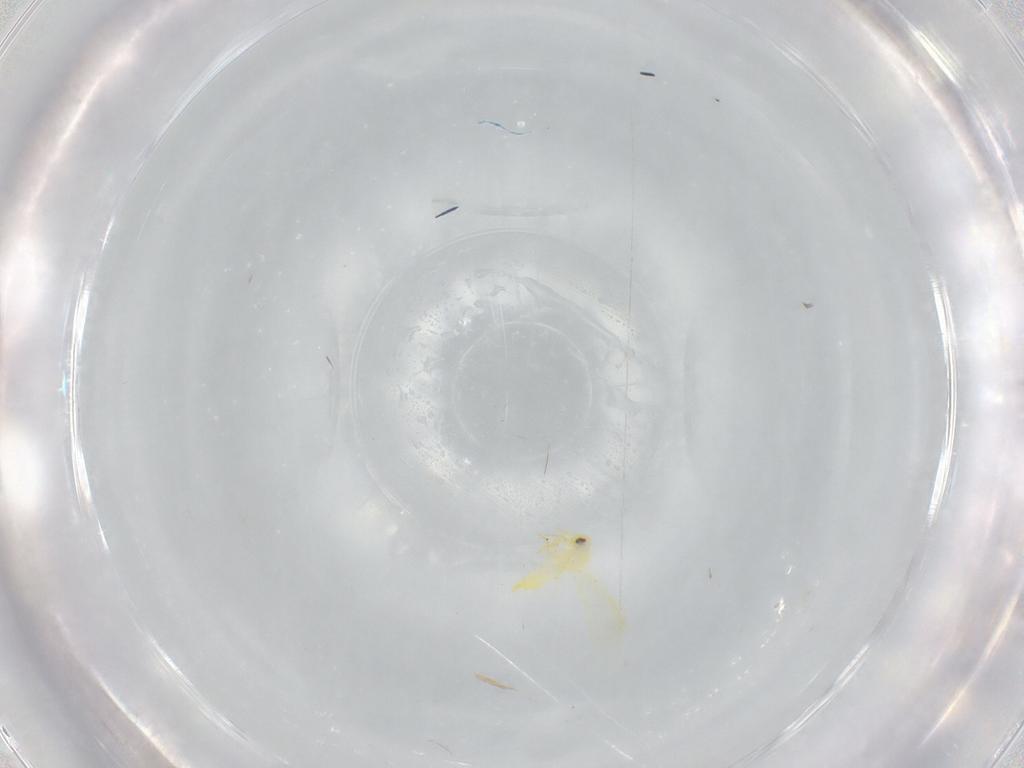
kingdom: Animalia
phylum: Arthropoda
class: Insecta
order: Hemiptera
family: Aleyrodidae
